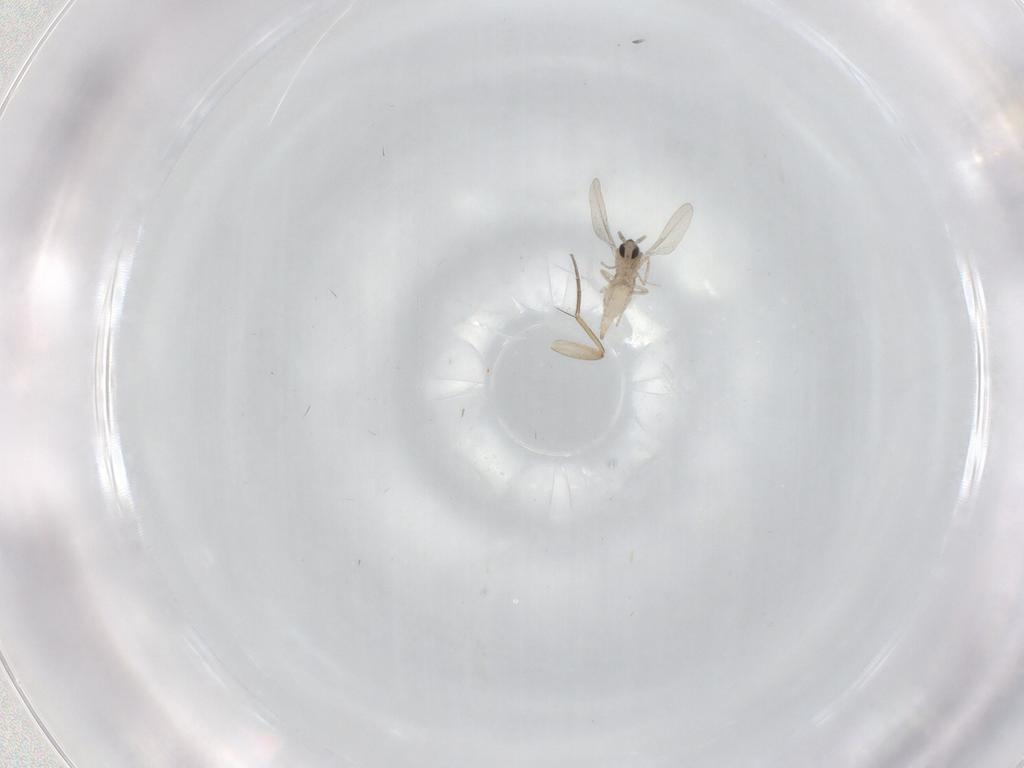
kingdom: Animalia
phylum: Arthropoda
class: Insecta
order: Diptera
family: Cecidomyiidae
